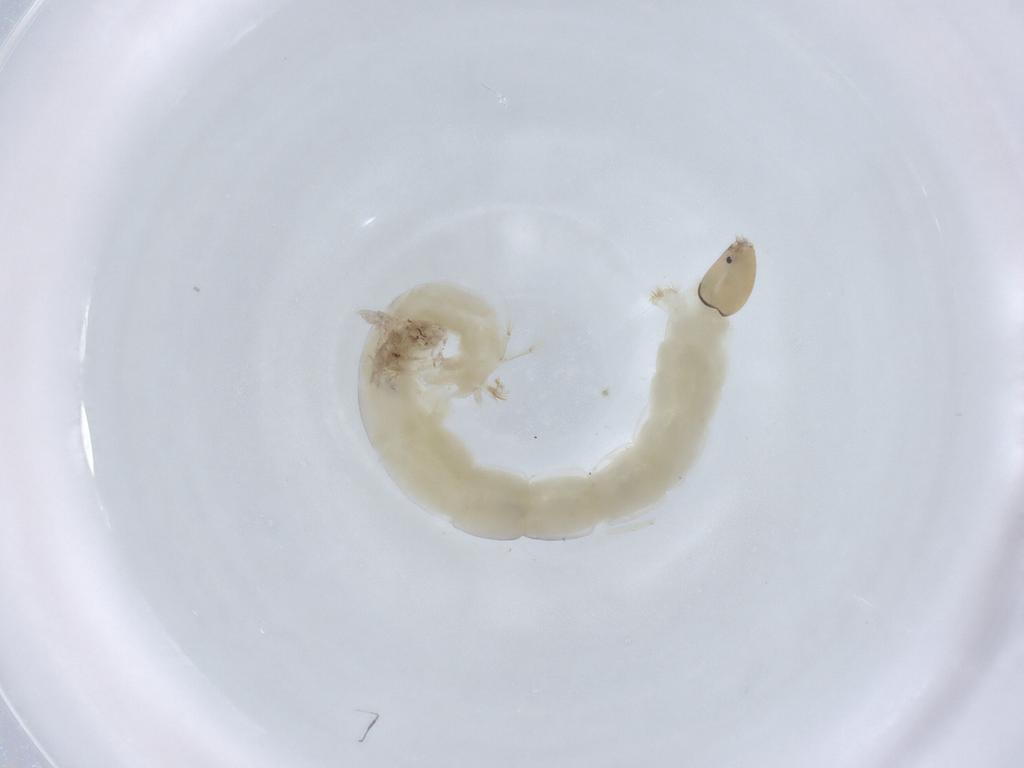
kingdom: Animalia
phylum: Arthropoda
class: Insecta
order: Diptera
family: Chironomidae
